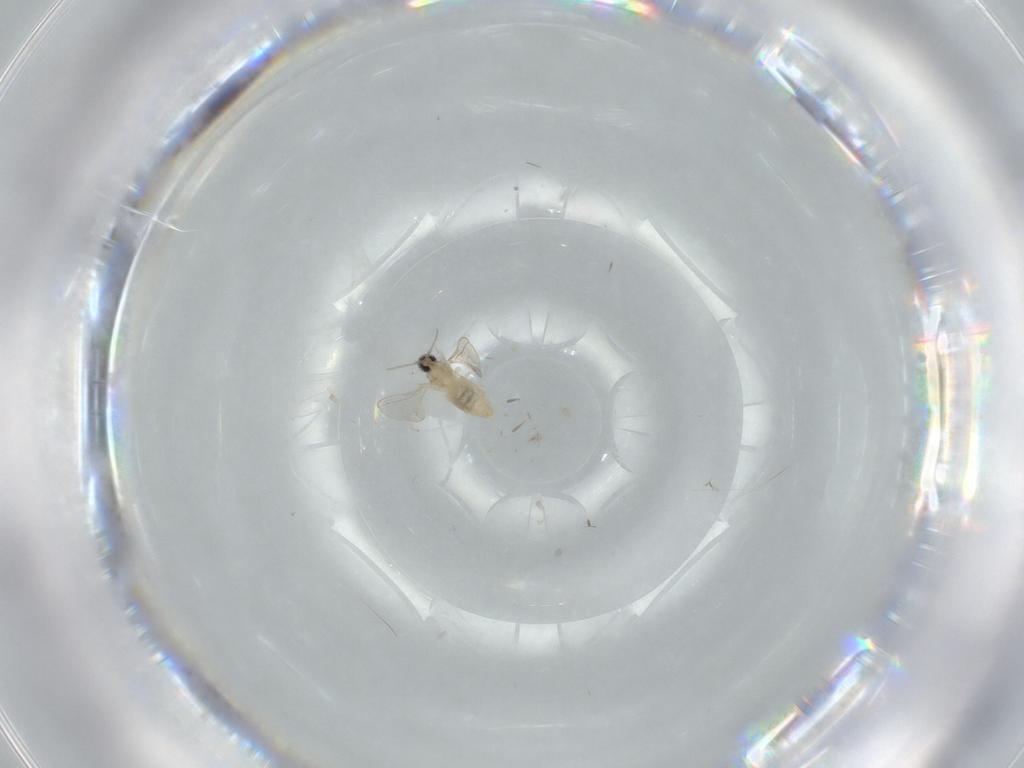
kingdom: Animalia
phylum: Arthropoda
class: Insecta
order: Diptera
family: Cecidomyiidae
